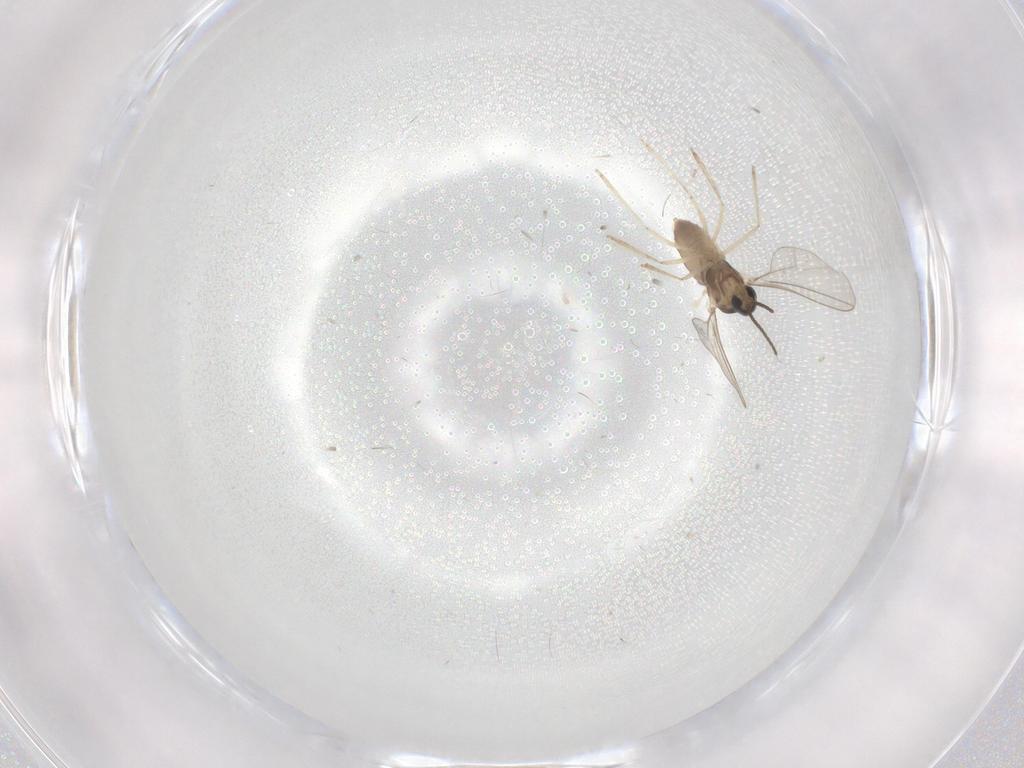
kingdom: Animalia
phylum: Arthropoda
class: Insecta
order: Diptera
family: Cecidomyiidae
